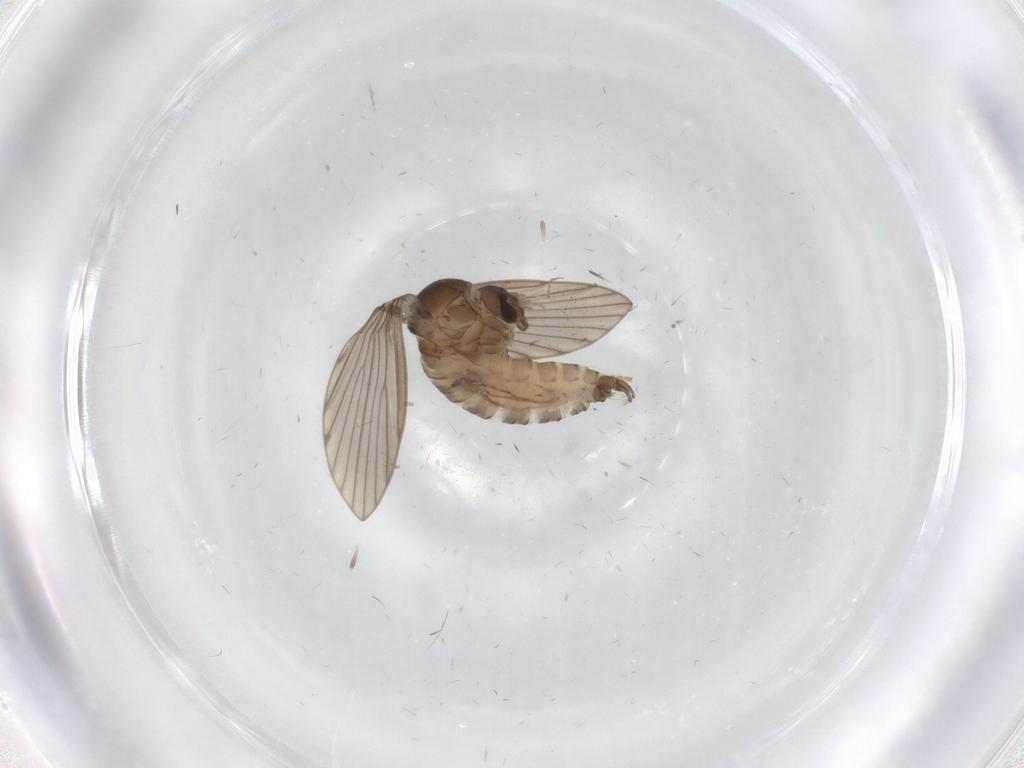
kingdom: Animalia
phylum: Arthropoda
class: Insecta
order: Diptera
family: Psychodidae
